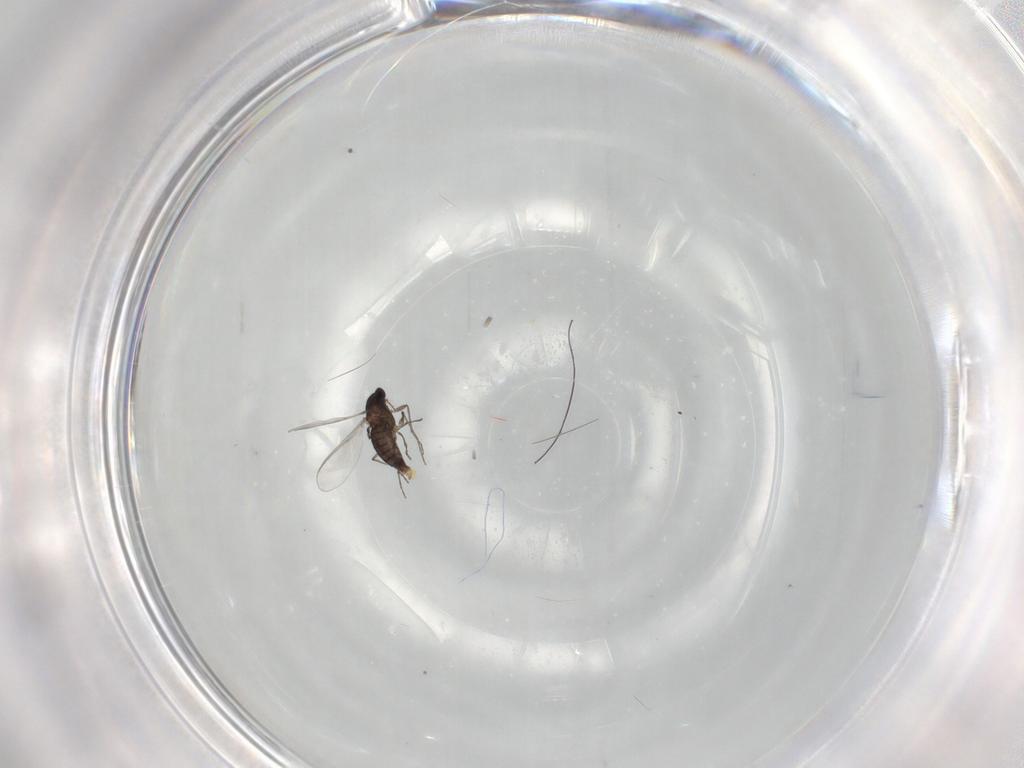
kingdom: Animalia
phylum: Arthropoda
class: Insecta
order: Diptera
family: Chironomidae
